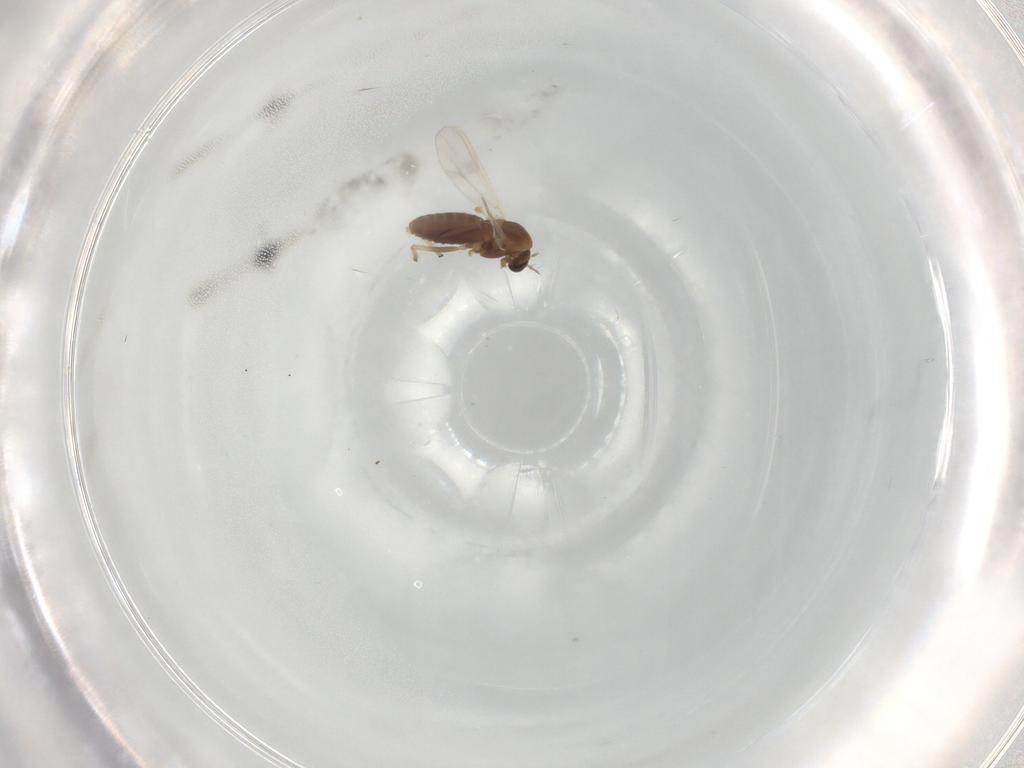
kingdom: Animalia
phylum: Arthropoda
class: Insecta
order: Diptera
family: Chironomidae
